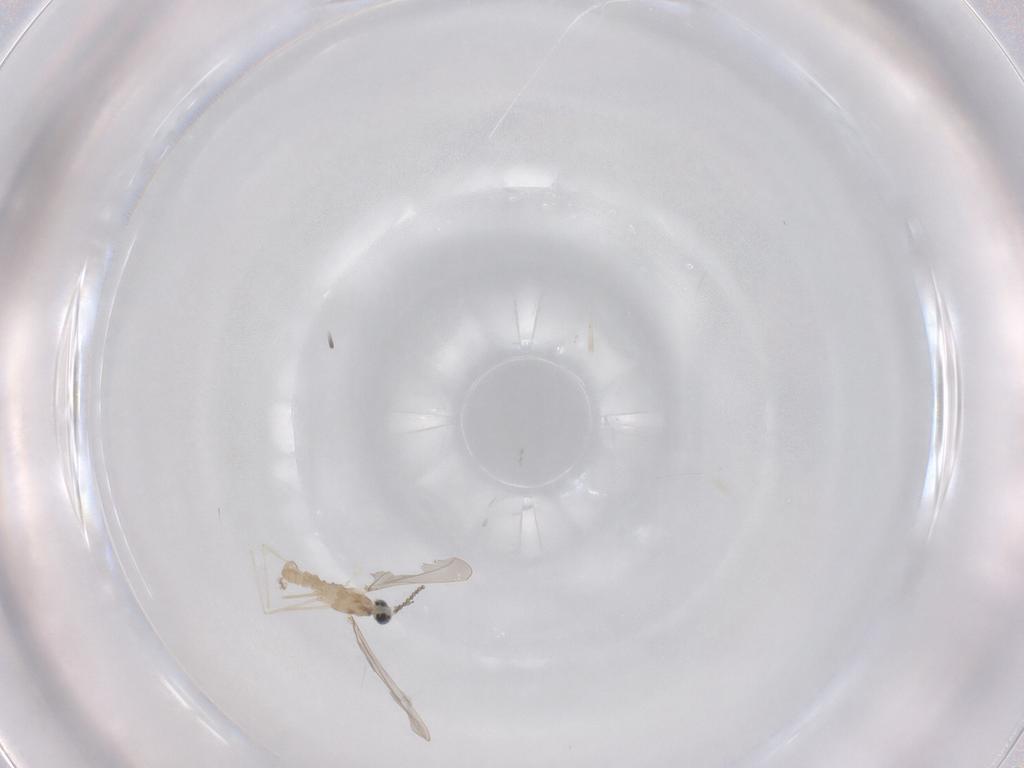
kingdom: Animalia
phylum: Arthropoda
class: Insecta
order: Diptera
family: Cecidomyiidae
